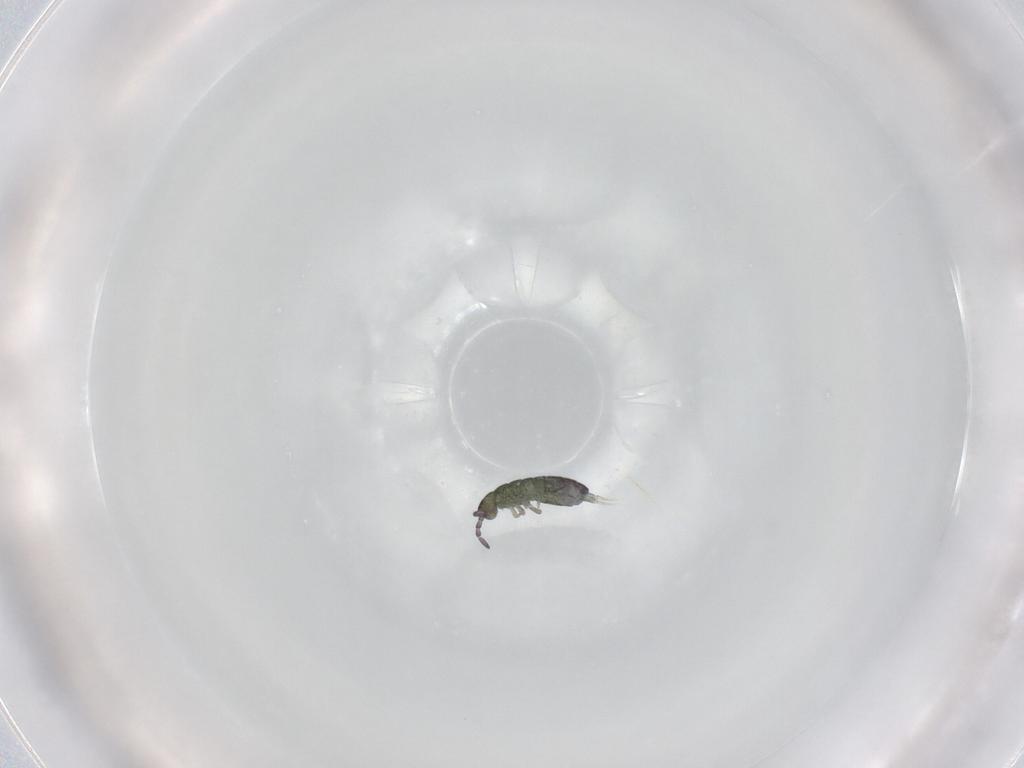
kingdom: Animalia
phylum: Arthropoda
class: Collembola
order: Entomobryomorpha
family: Isotomidae
